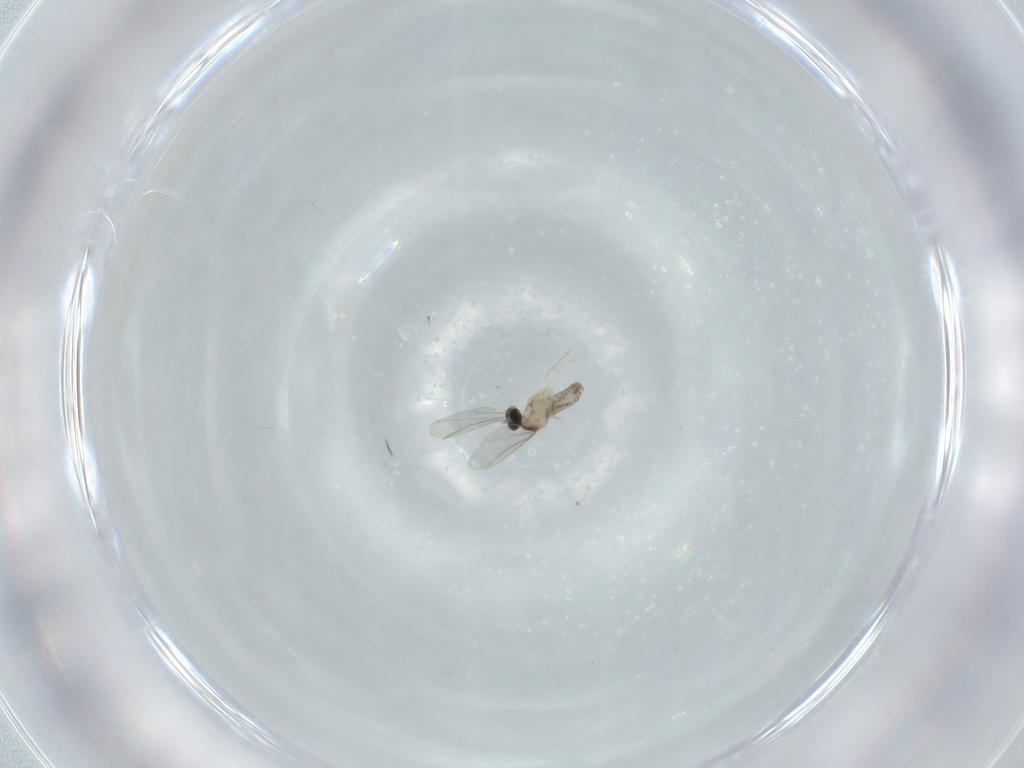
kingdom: Animalia
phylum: Arthropoda
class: Insecta
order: Diptera
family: Cecidomyiidae
